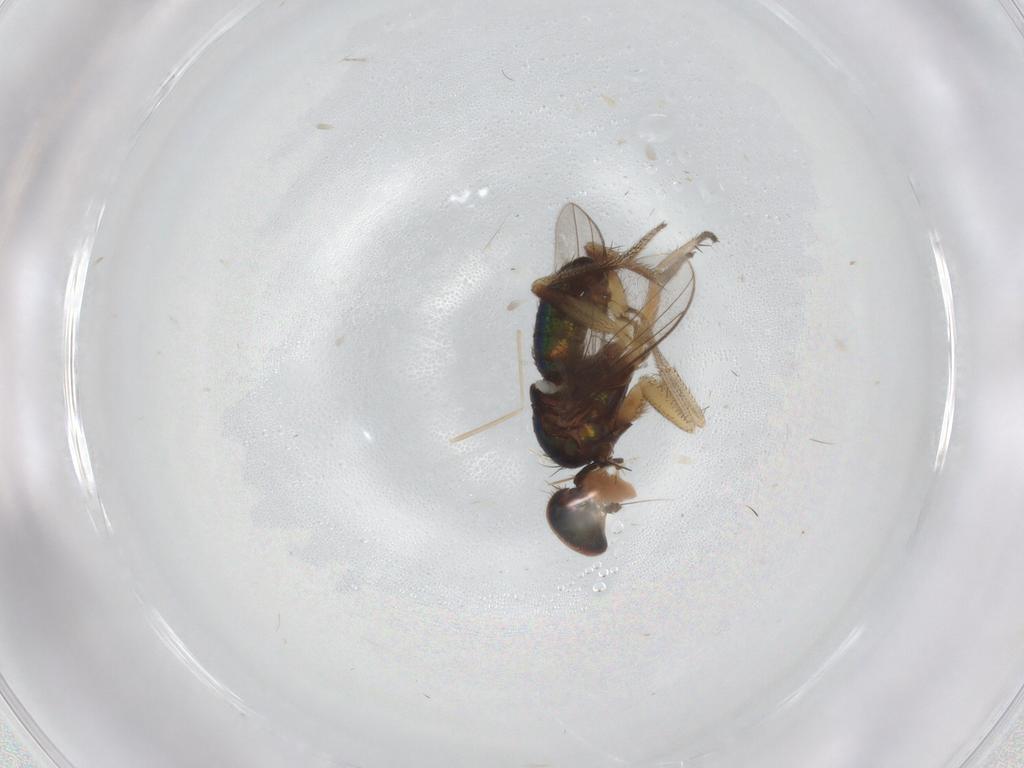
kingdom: Animalia
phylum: Arthropoda
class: Insecta
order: Diptera
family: Cecidomyiidae
